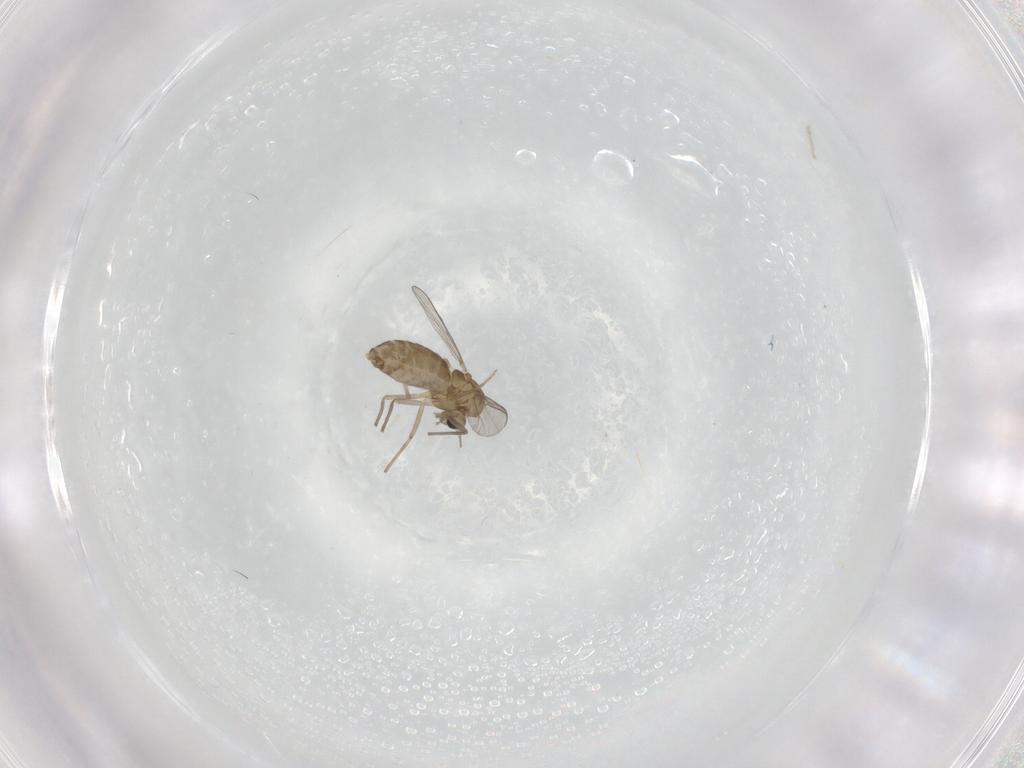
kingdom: Animalia
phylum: Arthropoda
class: Insecta
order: Diptera
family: Chironomidae
